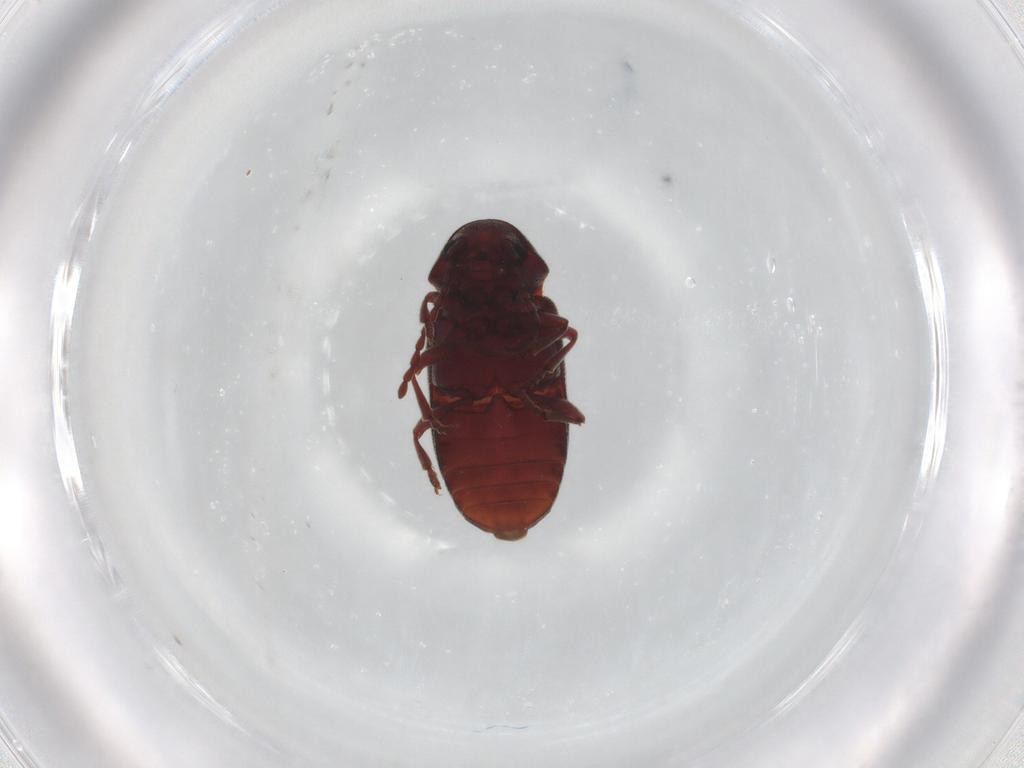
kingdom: Animalia
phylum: Arthropoda
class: Insecta
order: Coleoptera
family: Ptinidae
